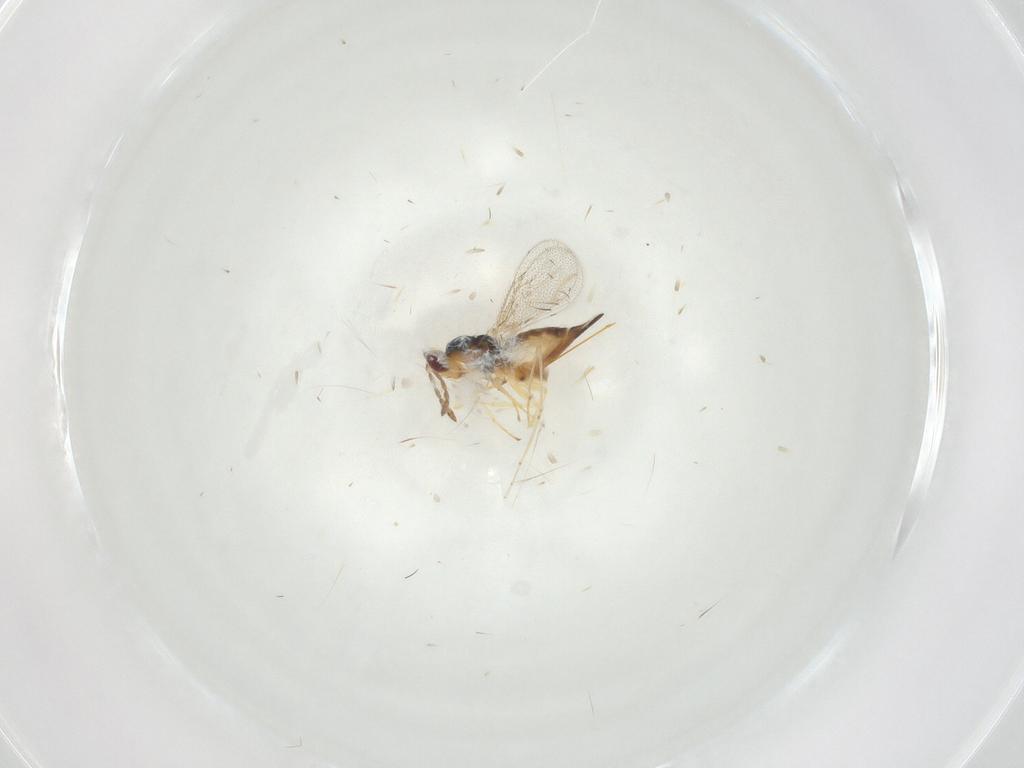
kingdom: Animalia
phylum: Arthropoda
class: Insecta
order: Hymenoptera
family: Eulophidae
